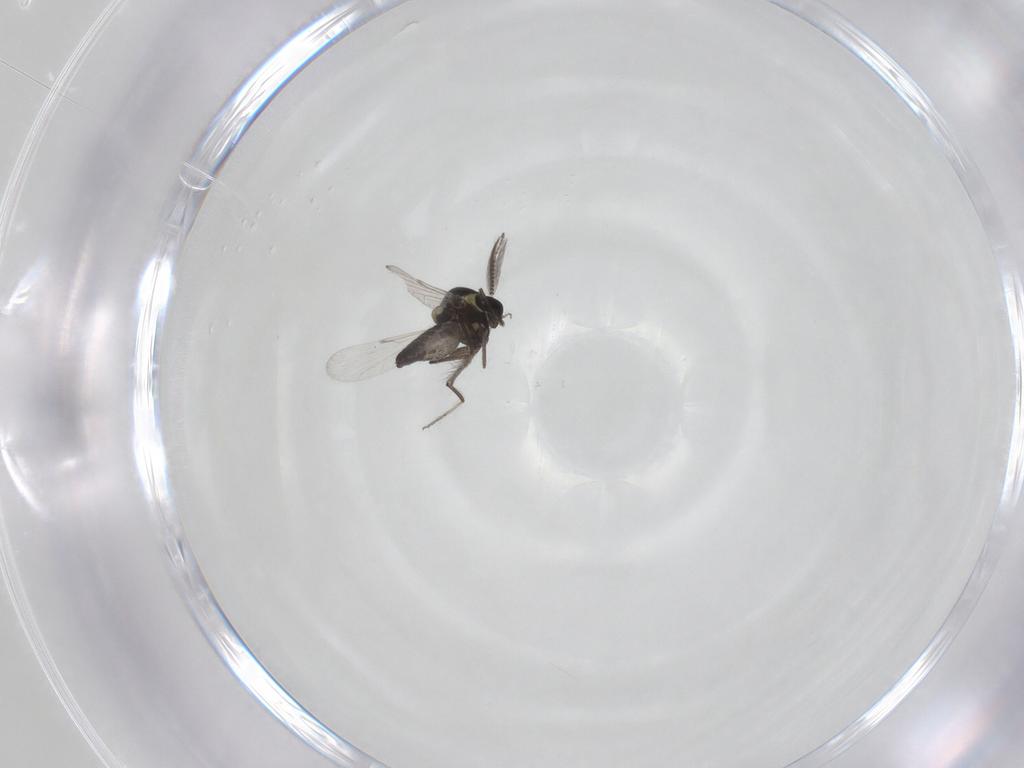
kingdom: Animalia
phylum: Arthropoda
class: Insecta
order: Diptera
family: Ceratopogonidae
